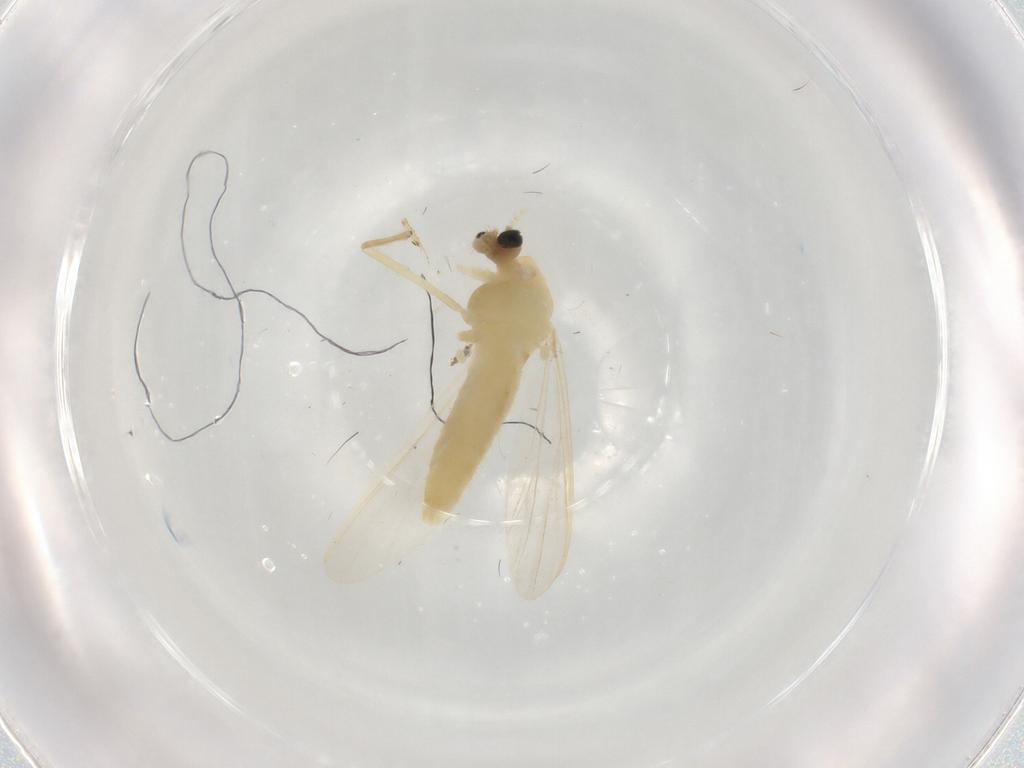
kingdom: Animalia
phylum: Arthropoda
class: Insecta
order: Diptera
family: Chironomidae
